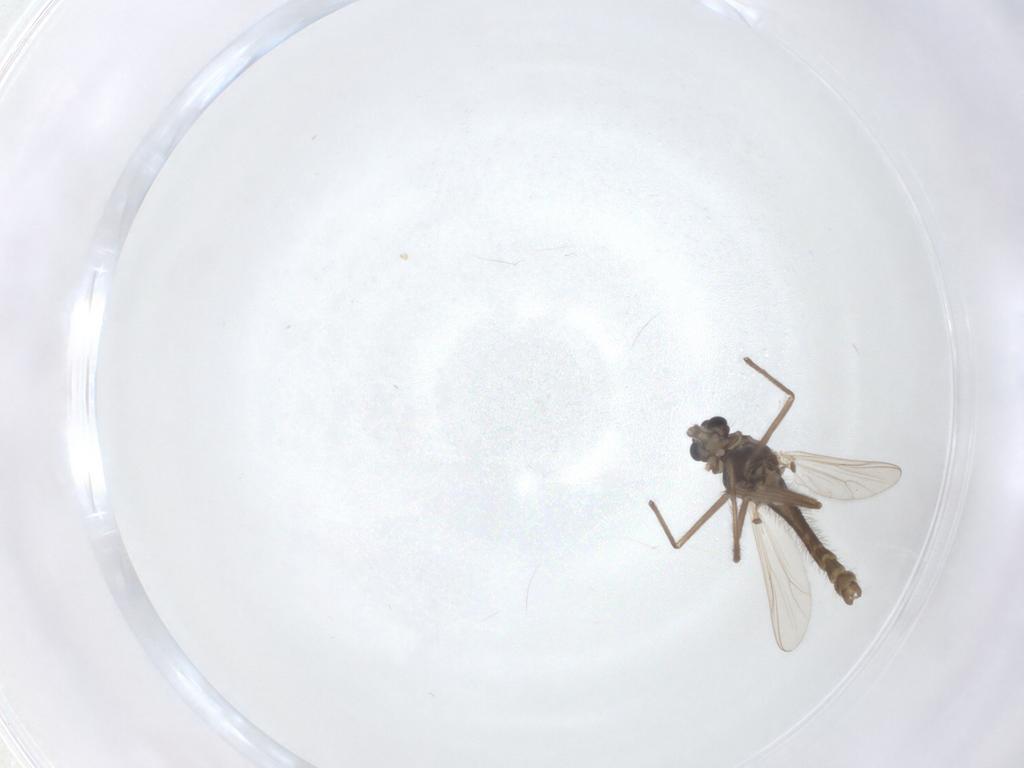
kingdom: Animalia
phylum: Arthropoda
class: Insecta
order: Diptera
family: Chironomidae
